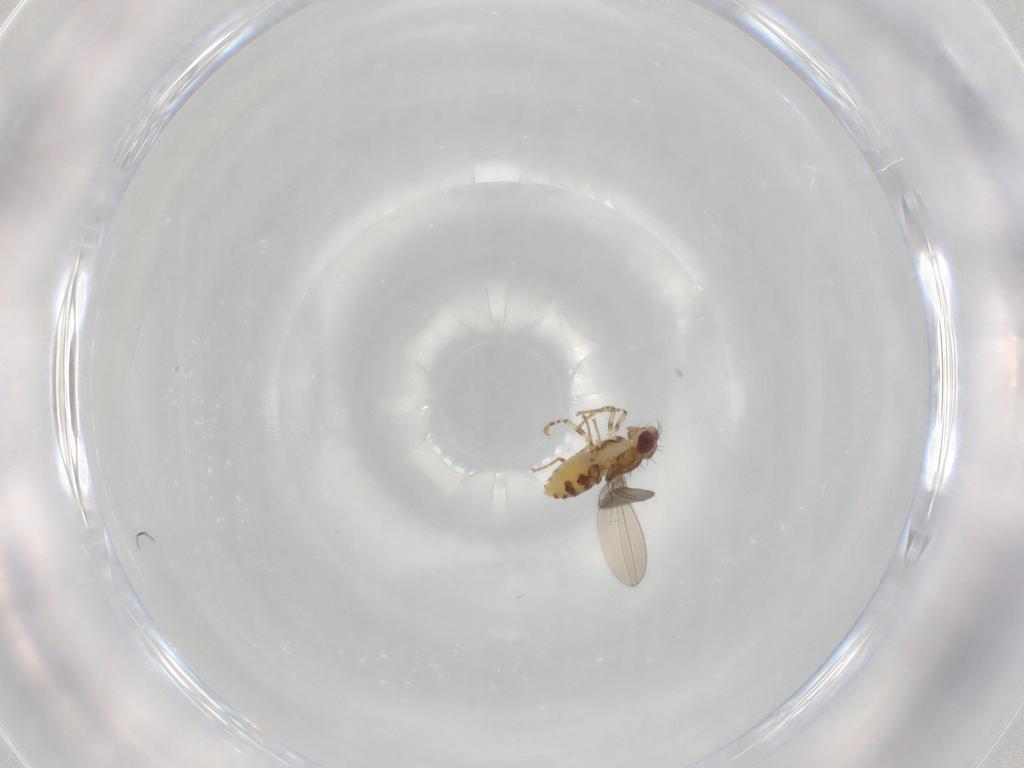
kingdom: Animalia
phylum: Arthropoda
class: Insecta
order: Diptera
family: Asteiidae
